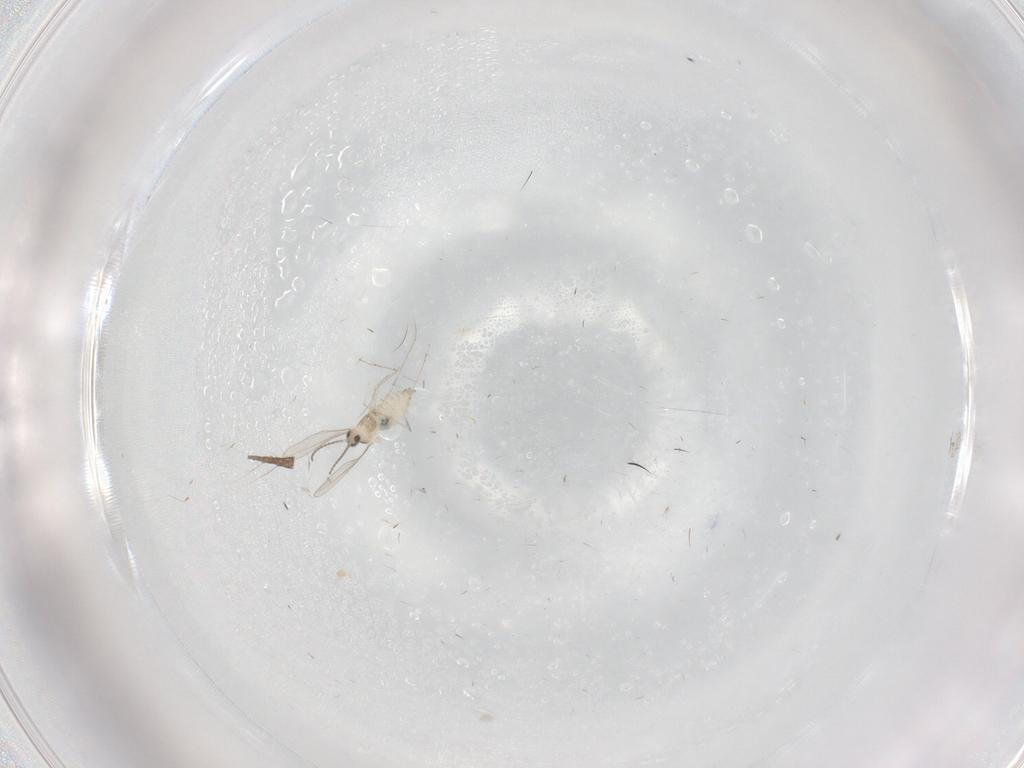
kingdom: Animalia
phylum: Arthropoda
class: Insecta
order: Diptera
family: Cecidomyiidae
